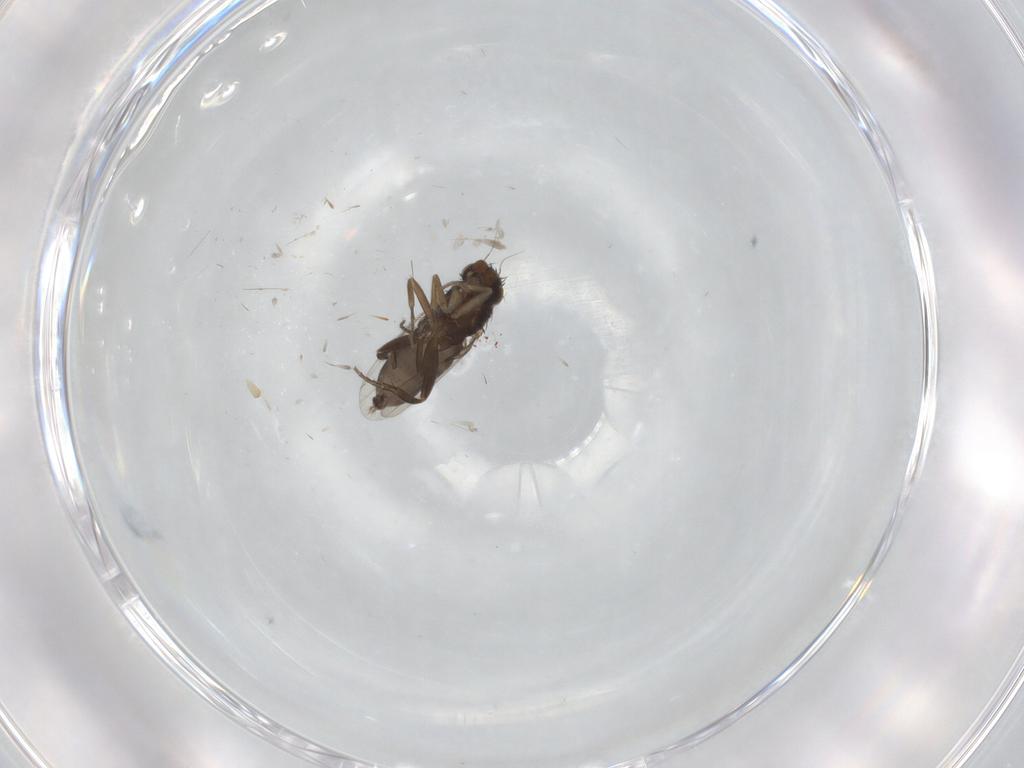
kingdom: Animalia
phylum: Arthropoda
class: Insecta
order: Diptera
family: Phoridae
